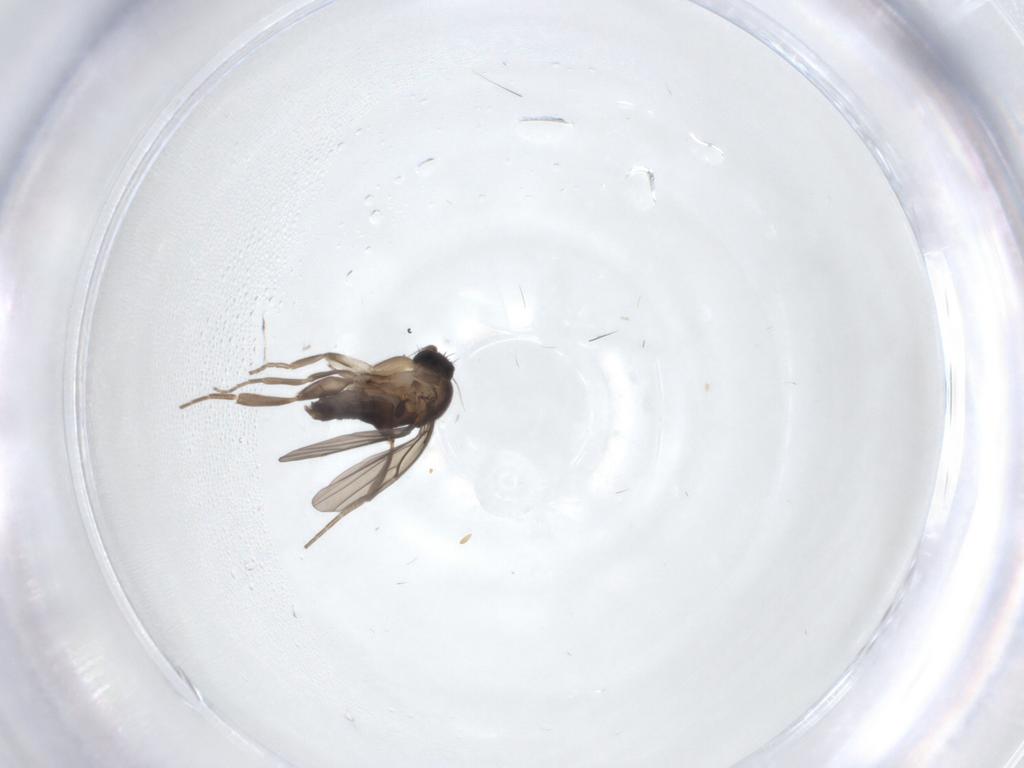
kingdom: Animalia
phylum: Arthropoda
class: Insecta
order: Diptera
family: Phoridae
